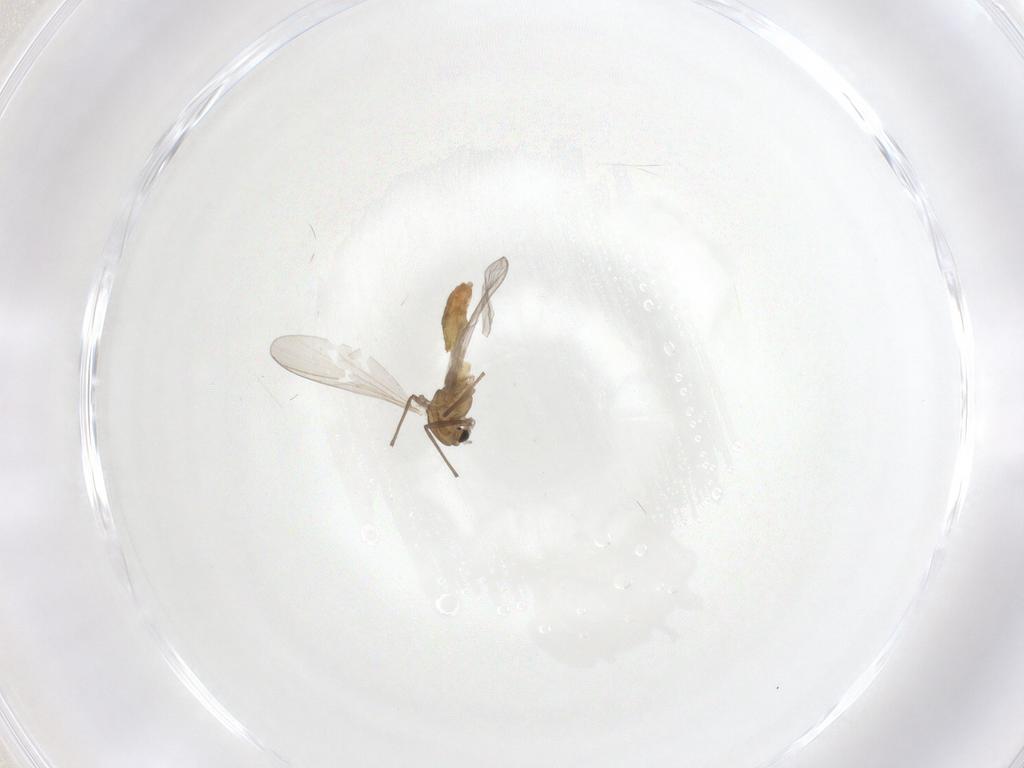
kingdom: Animalia
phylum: Arthropoda
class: Insecta
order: Diptera
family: Chironomidae
